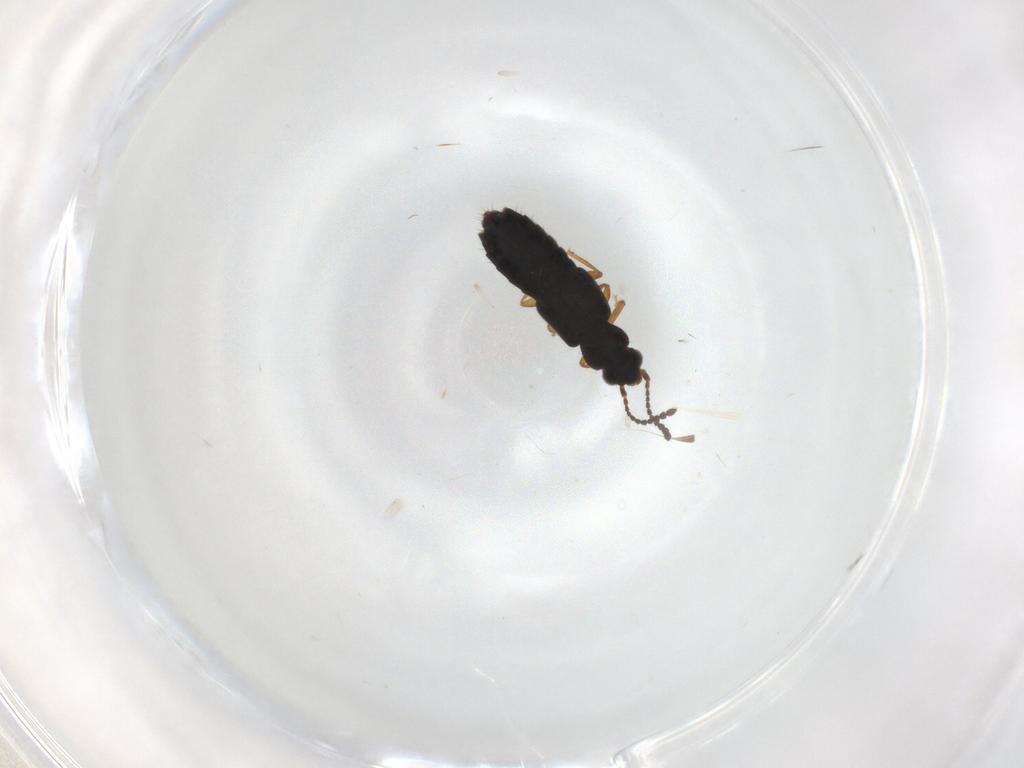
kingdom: Animalia
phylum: Arthropoda
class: Insecta
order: Coleoptera
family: Staphylinidae
